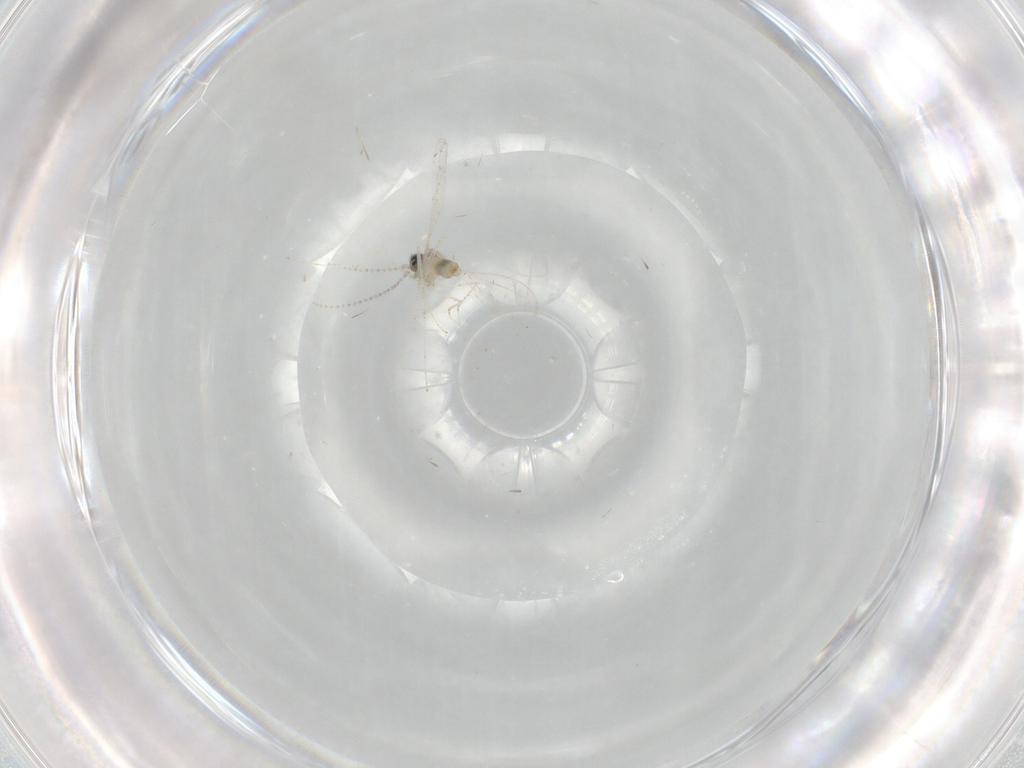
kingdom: Animalia
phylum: Arthropoda
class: Insecta
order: Diptera
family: Cecidomyiidae
